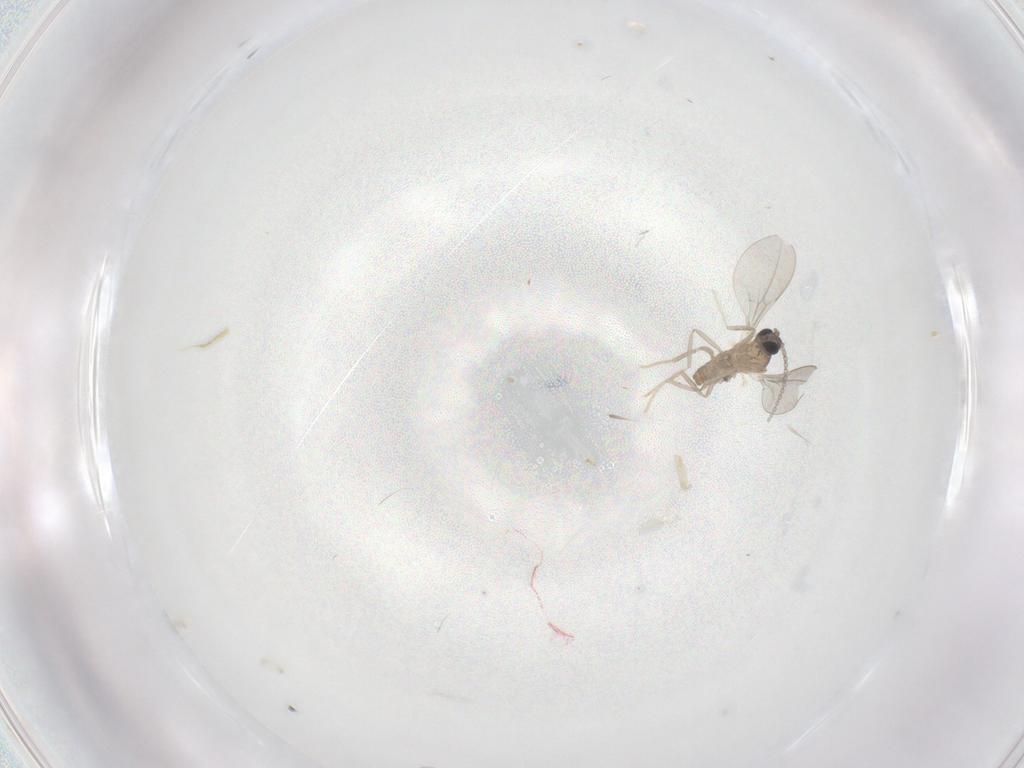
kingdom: Animalia
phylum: Arthropoda
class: Insecta
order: Diptera
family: Cecidomyiidae
